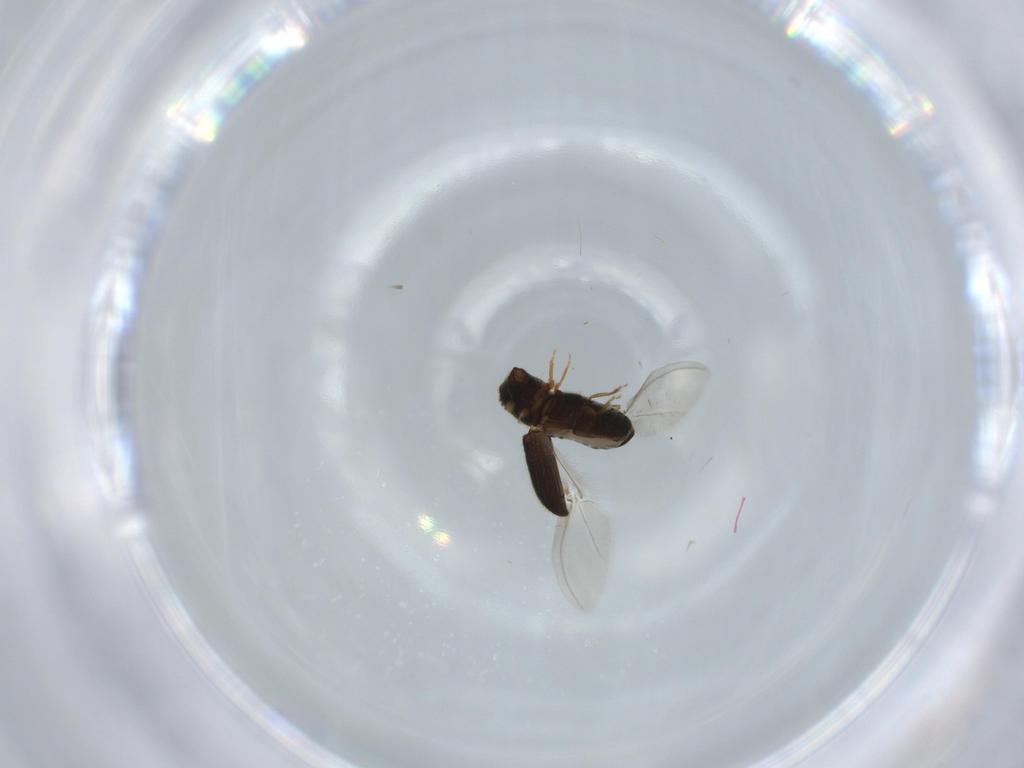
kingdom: Animalia
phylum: Arthropoda
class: Insecta
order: Coleoptera
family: Curculionidae
